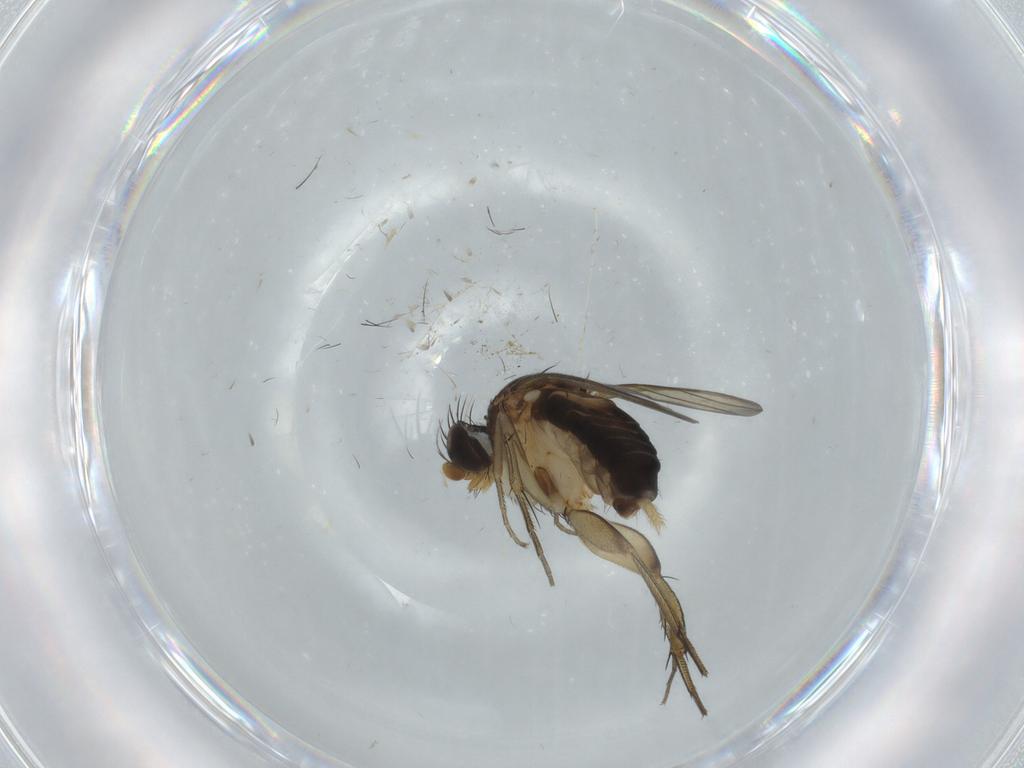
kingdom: Animalia
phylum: Arthropoda
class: Insecta
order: Diptera
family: Phoridae
